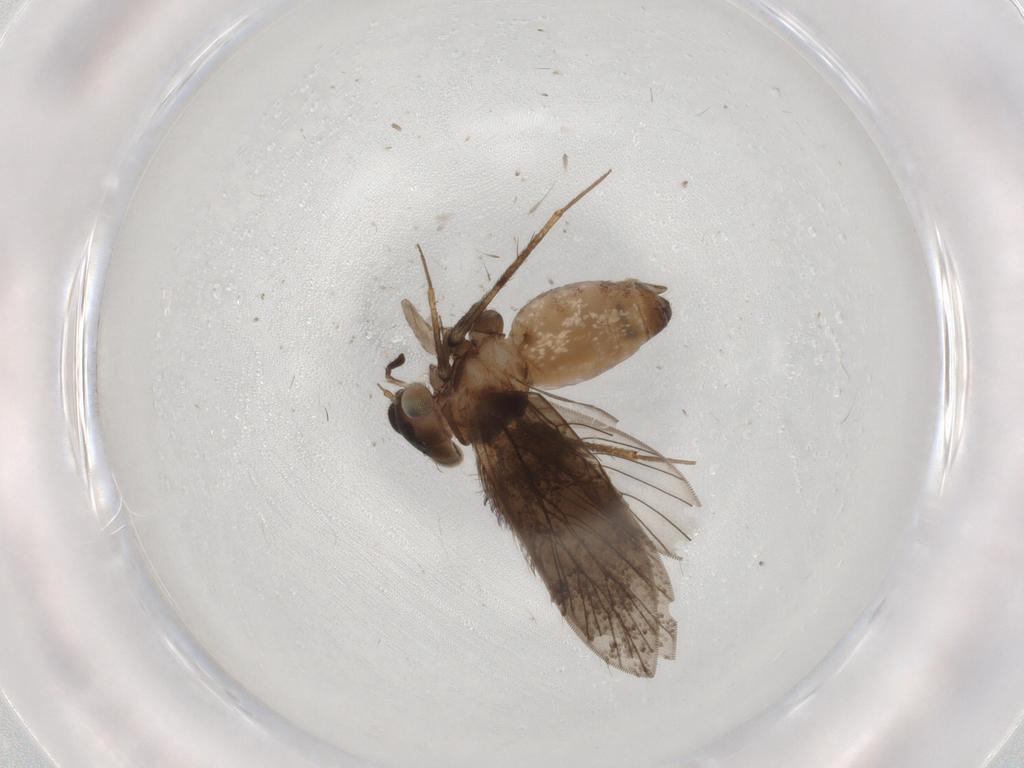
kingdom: Animalia
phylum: Arthropoda
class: Insecta
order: Psocodea
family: Lepidopsocidae
